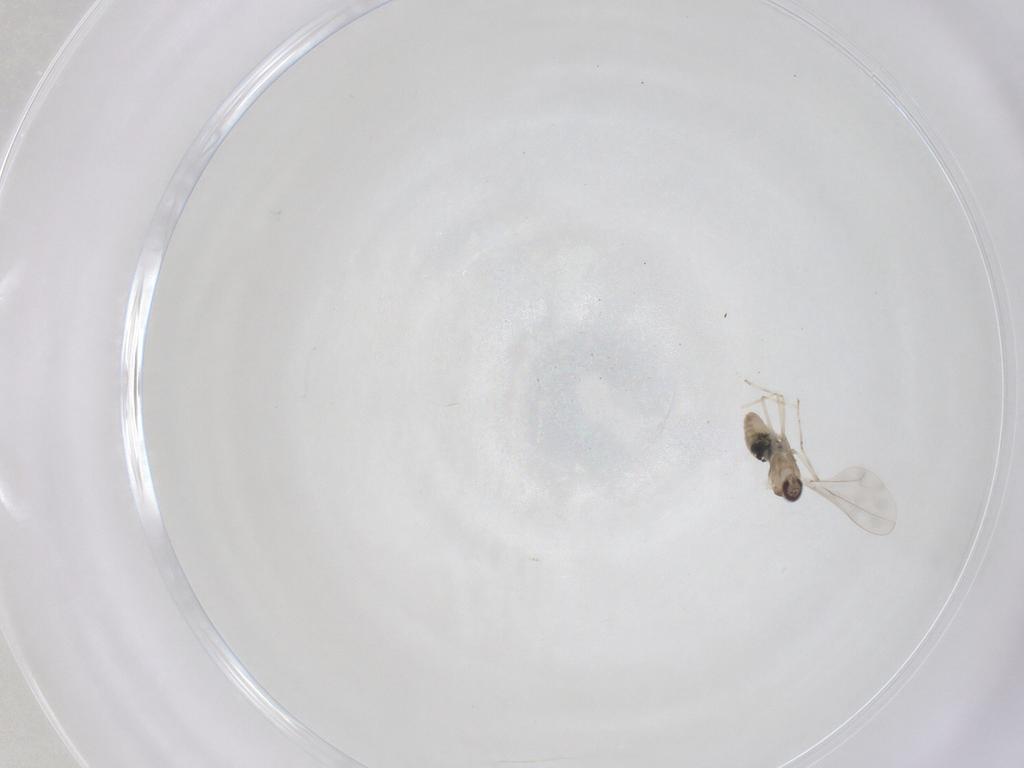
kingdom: Animalia
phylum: Arthropoda
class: Insecta
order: Diptera
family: Cecidomyiidae
